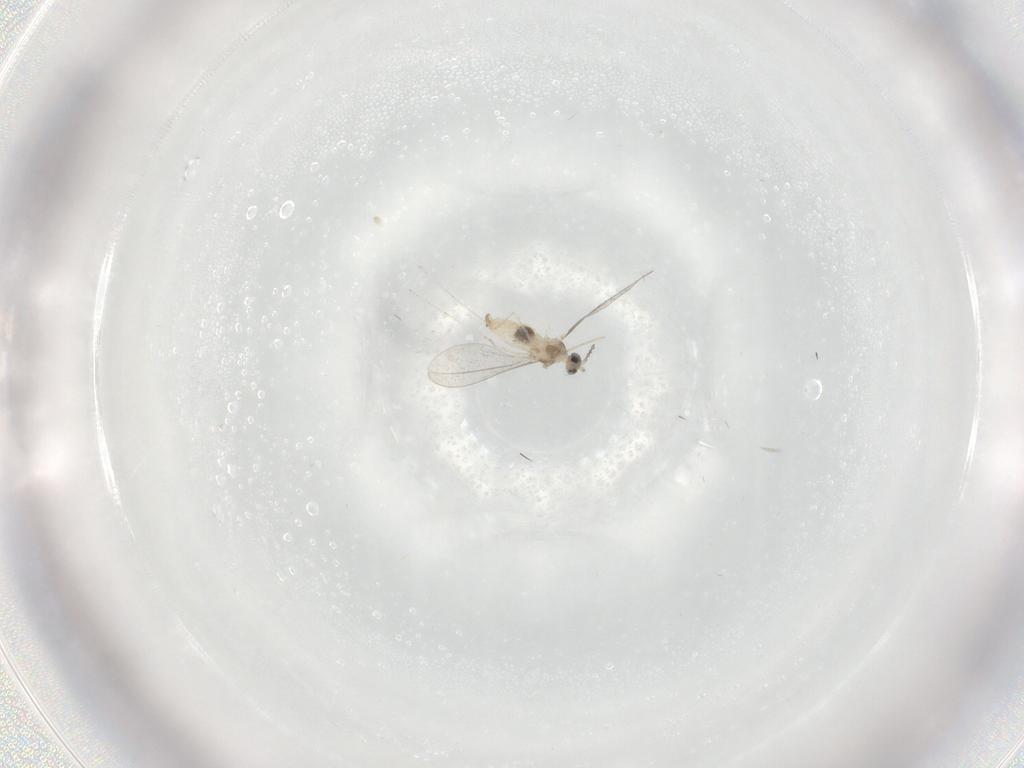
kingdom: Animalia
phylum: Arthropoda
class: Insecta
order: Diptera
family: Cecidomyiidae
